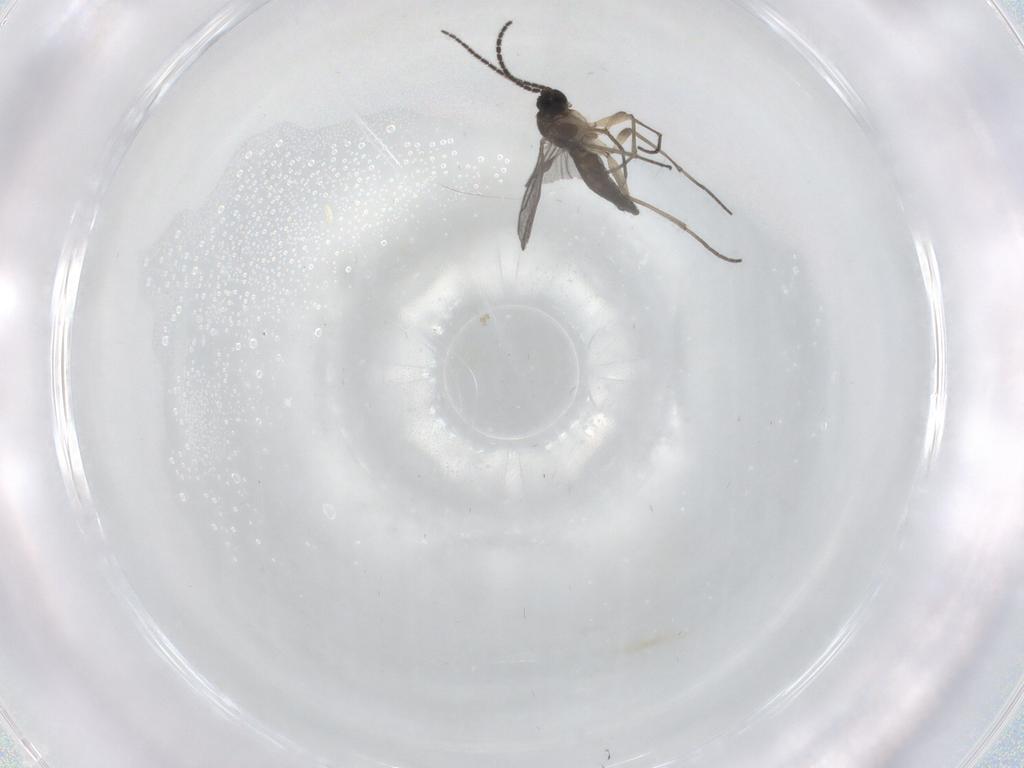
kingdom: Animalia
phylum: Arthropoda
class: Insecta
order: Diptera
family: Sciaridae
